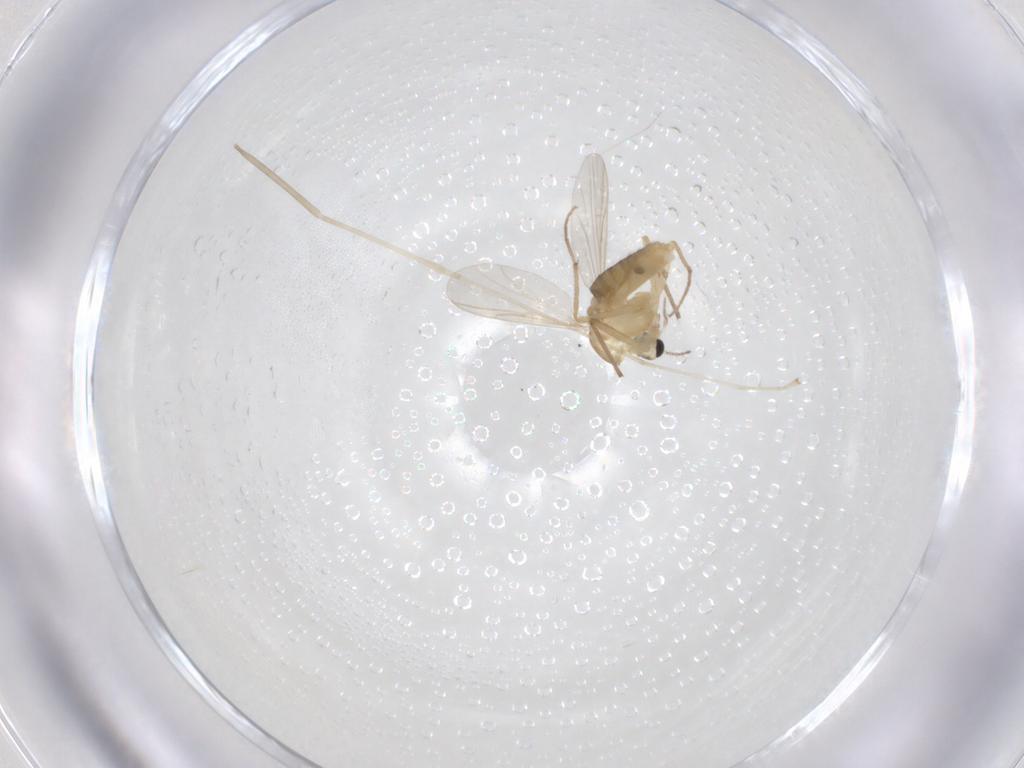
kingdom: Animalia
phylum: Arthropoda
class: Insecta
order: Diptera
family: Chironomidae
